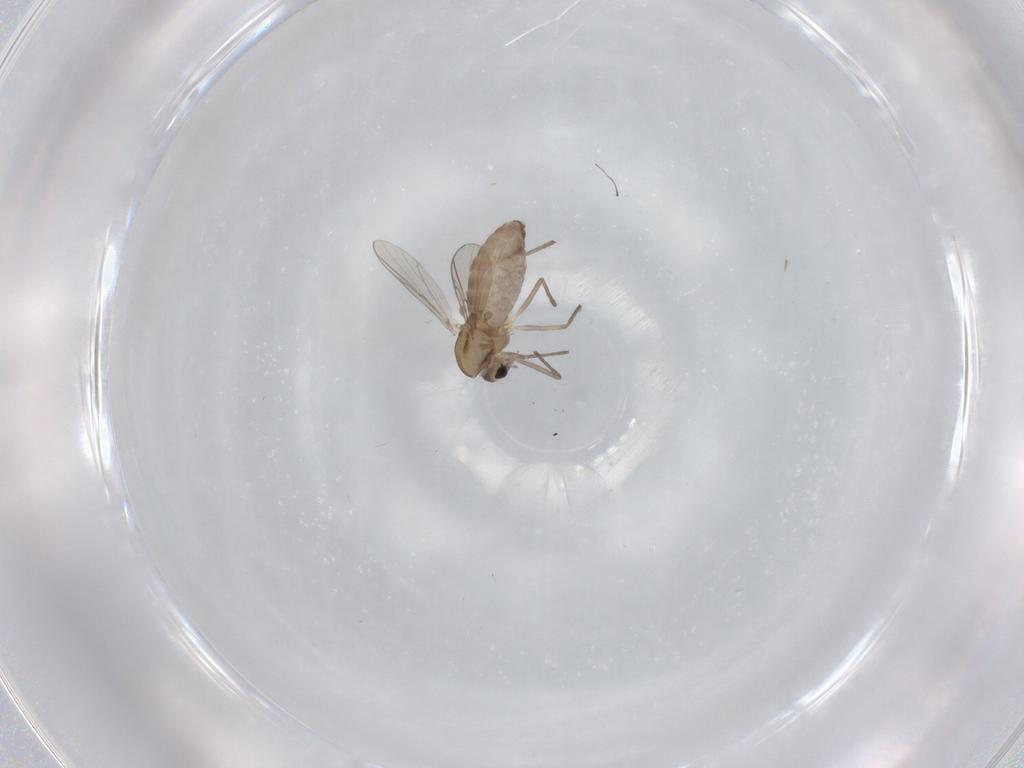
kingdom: Animalia
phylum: Arthropoda
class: Insecta
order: Diptera
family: Chironomidae
